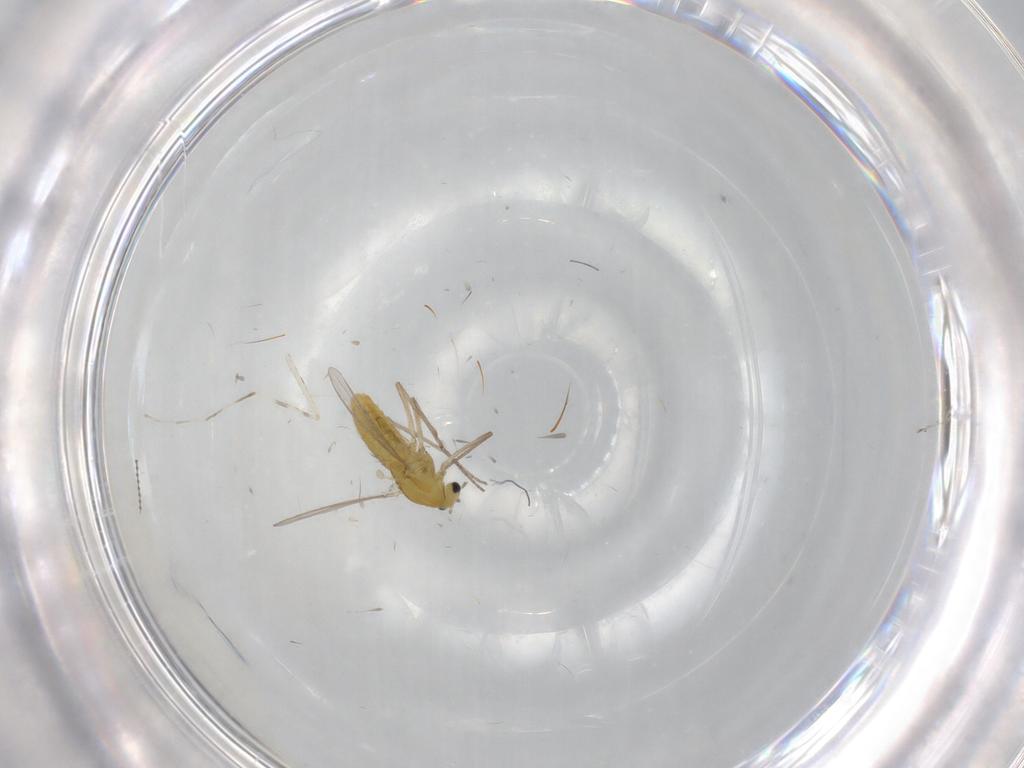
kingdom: Animalia
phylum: Arthropoda
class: Insecta
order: Diptera
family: Chironomidae
